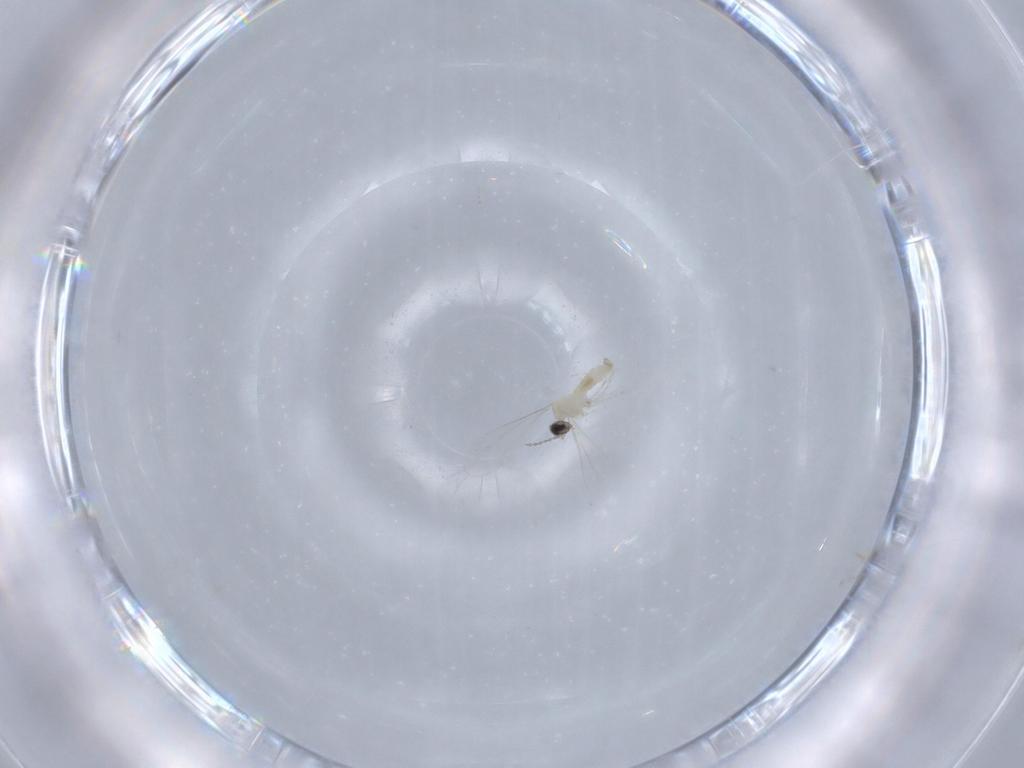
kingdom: Animalia
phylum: Arthropoda
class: Insecta
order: Diptera
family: Cecidomyiidae
